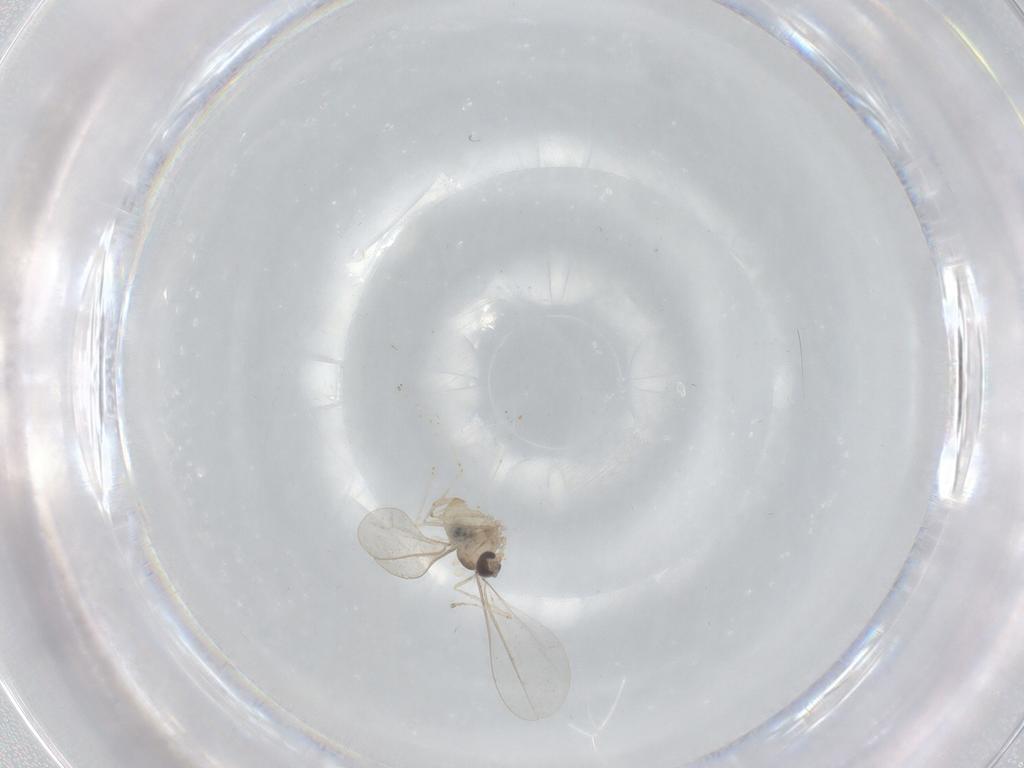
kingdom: Animalia
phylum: Arthropoda
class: Insecta
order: Diptera
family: Cecidomyiidae
